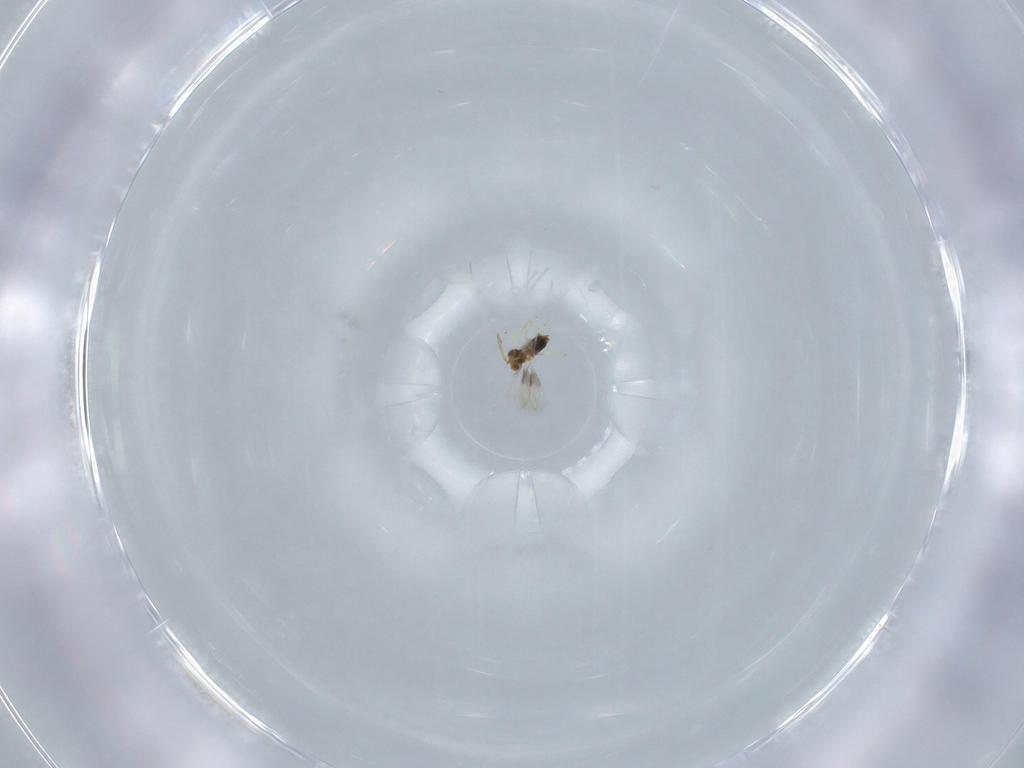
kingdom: Animalia
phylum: Arthropoda
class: Insecta
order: Hymenoptera
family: Aphelinidae
